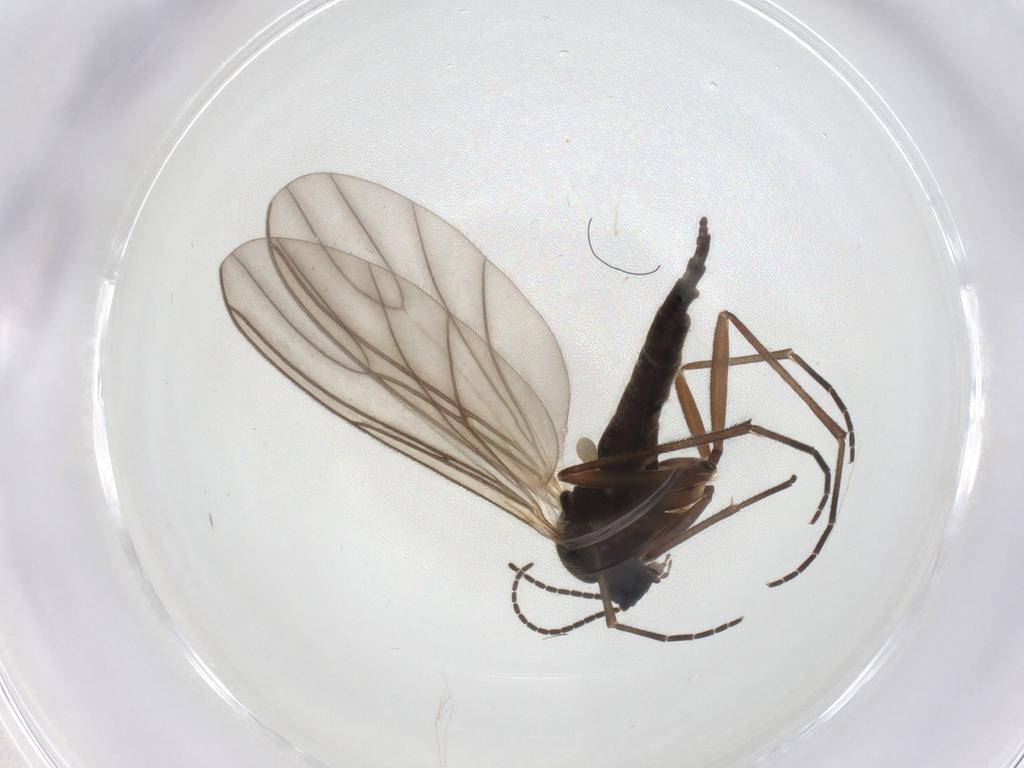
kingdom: Animalia
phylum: Arthropoda
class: Insecta
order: Diptera
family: Sciaridae
